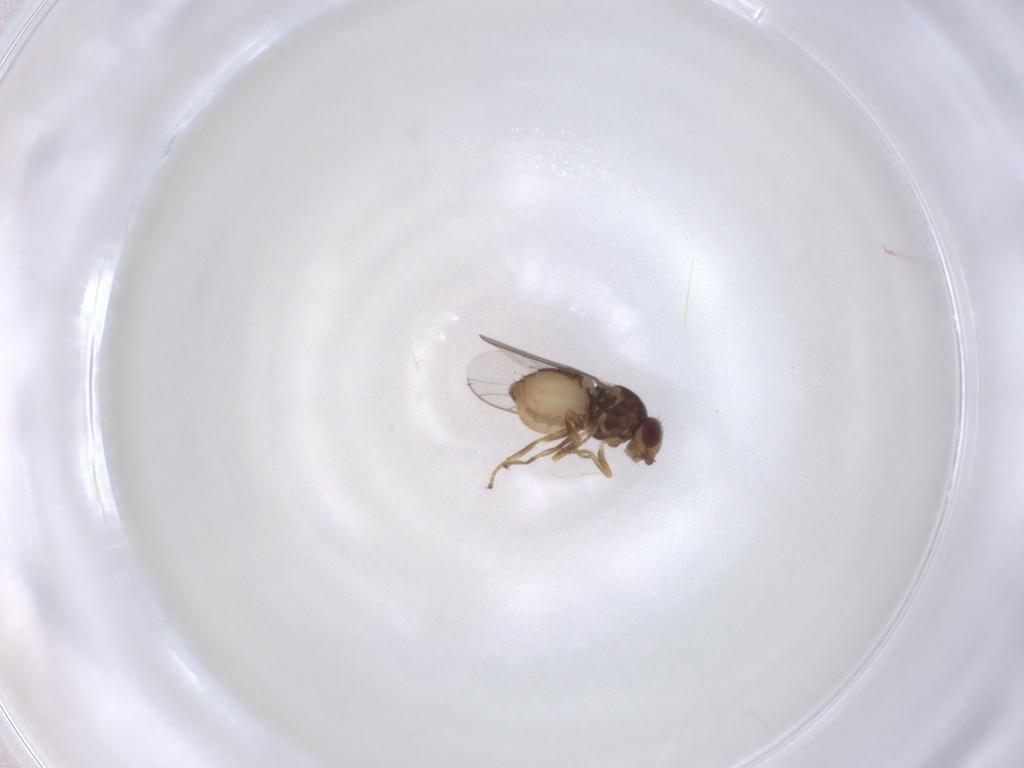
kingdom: Animalia
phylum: Arthropoda
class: Insecta
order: Diptera
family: Chloropidae
